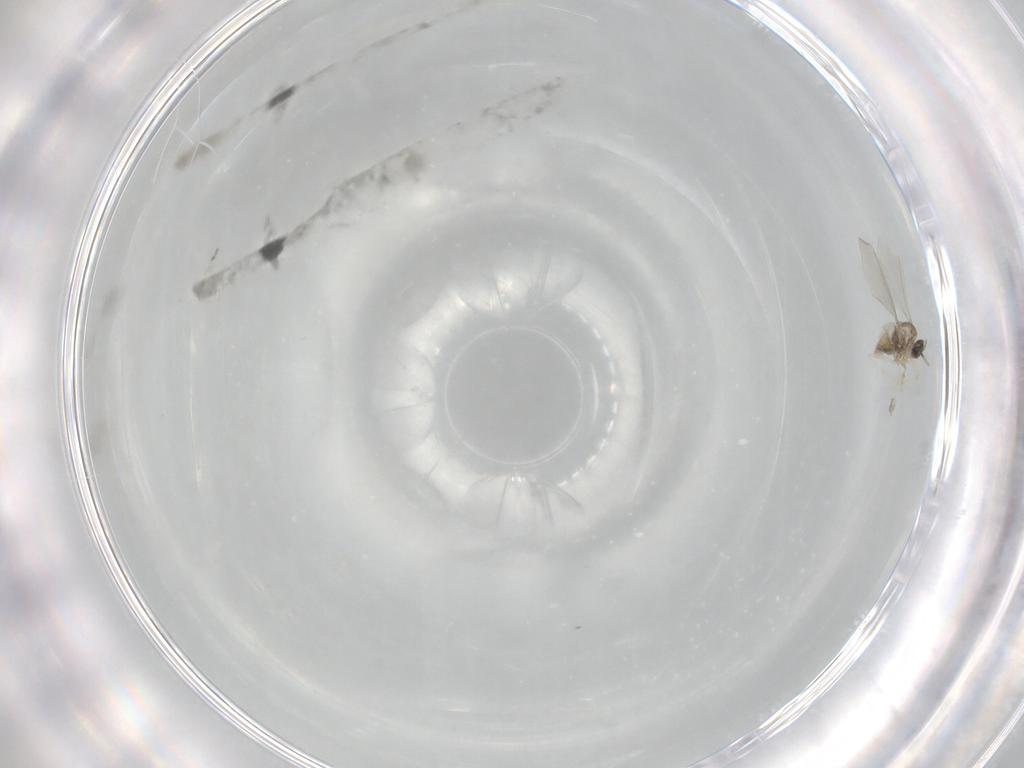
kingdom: Animalia
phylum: Arthropoda
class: Insecta
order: Diptera
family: Cecidomyiidae
